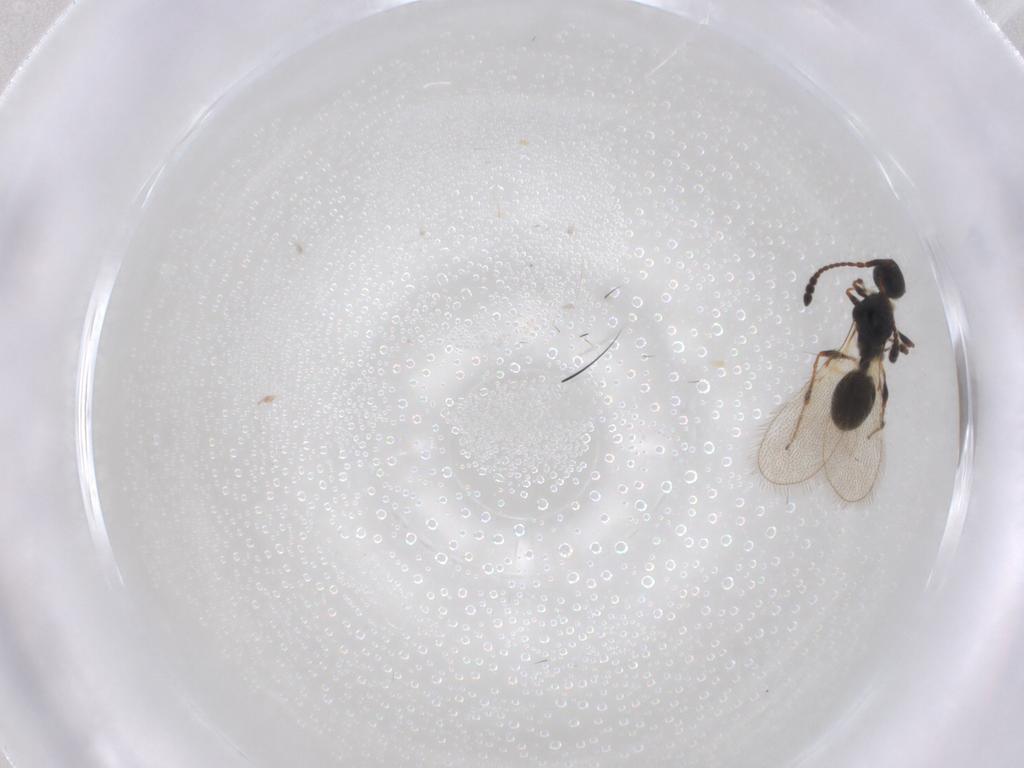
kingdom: Animalia
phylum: Arthropoda
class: Insecta
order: Hymenoptera
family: Diapriidae
